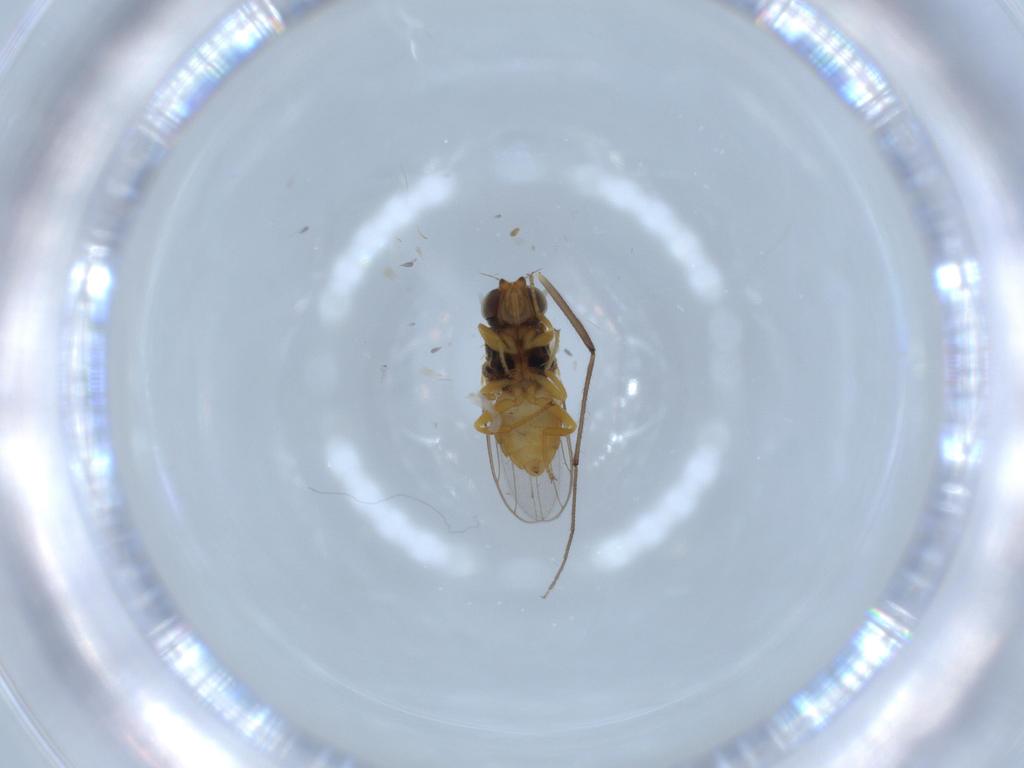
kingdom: Animalia
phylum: Arthropoda
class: Insecta
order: Diptera
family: Chloropidae
